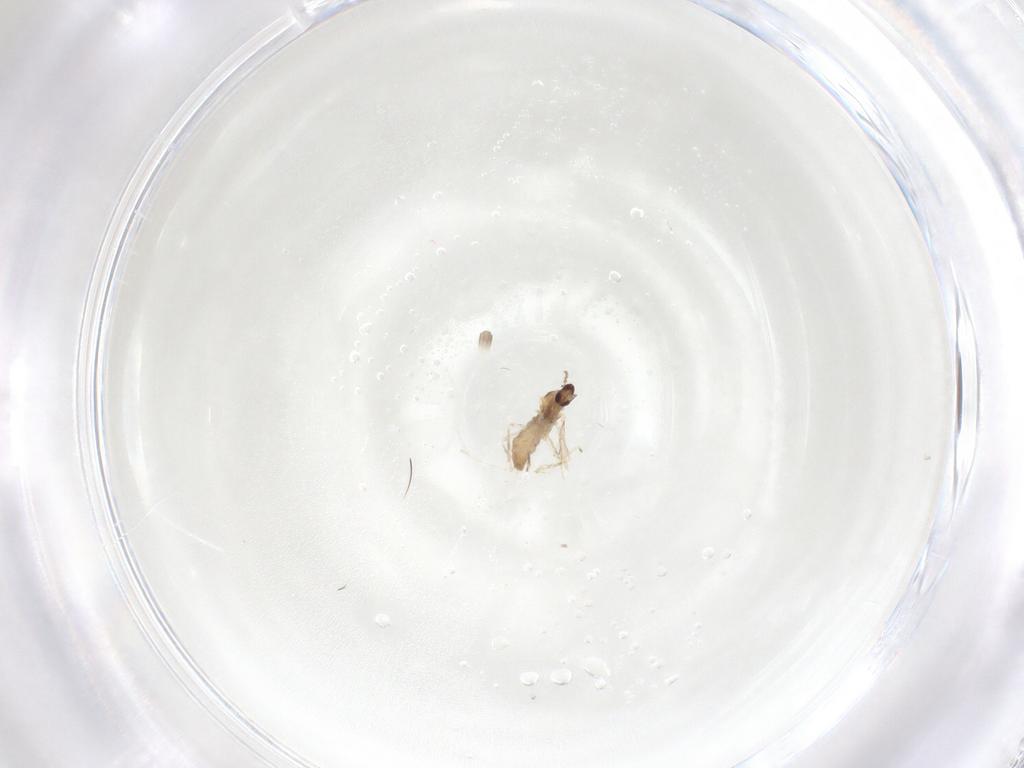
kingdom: Animalia
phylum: Arthropoda
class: Insecta
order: Diptera
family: Cecidomyiidae
